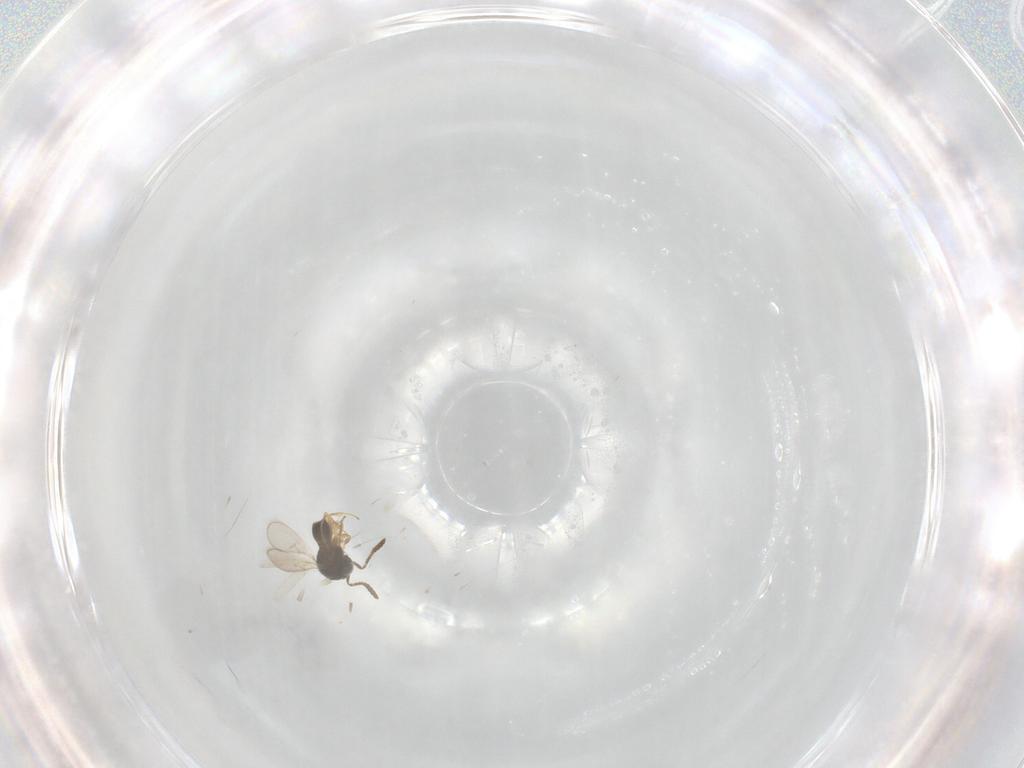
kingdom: Animalia
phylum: Arthropoda
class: Insecta
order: Hymenoptera
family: Scelionidae
